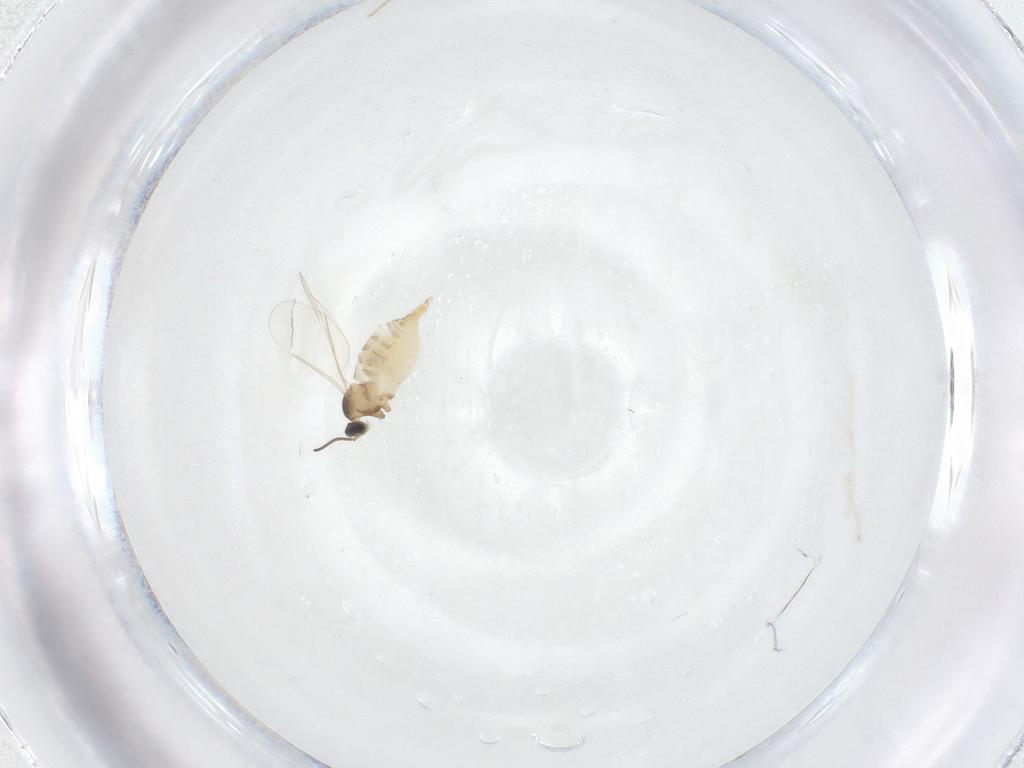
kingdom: Animalia
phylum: Arthropoda
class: Insecta
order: Diptera
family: Cecidomyiidae
